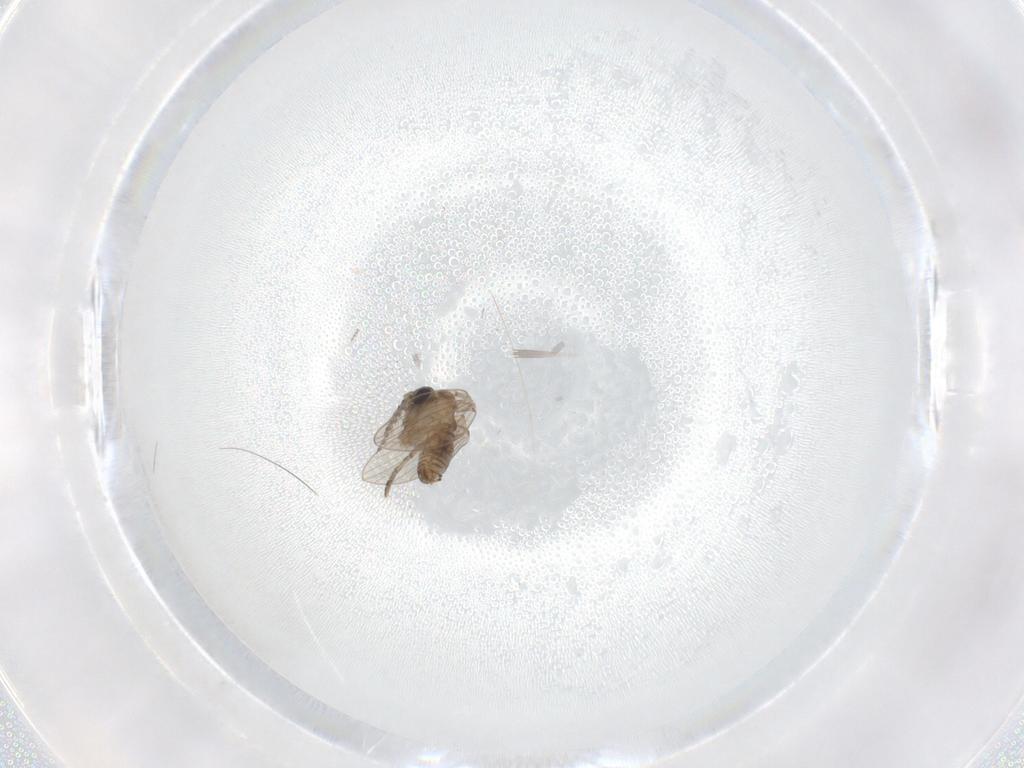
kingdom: Animalia
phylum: Arthropoda
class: Insecta
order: Diptera
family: Psychodidae
